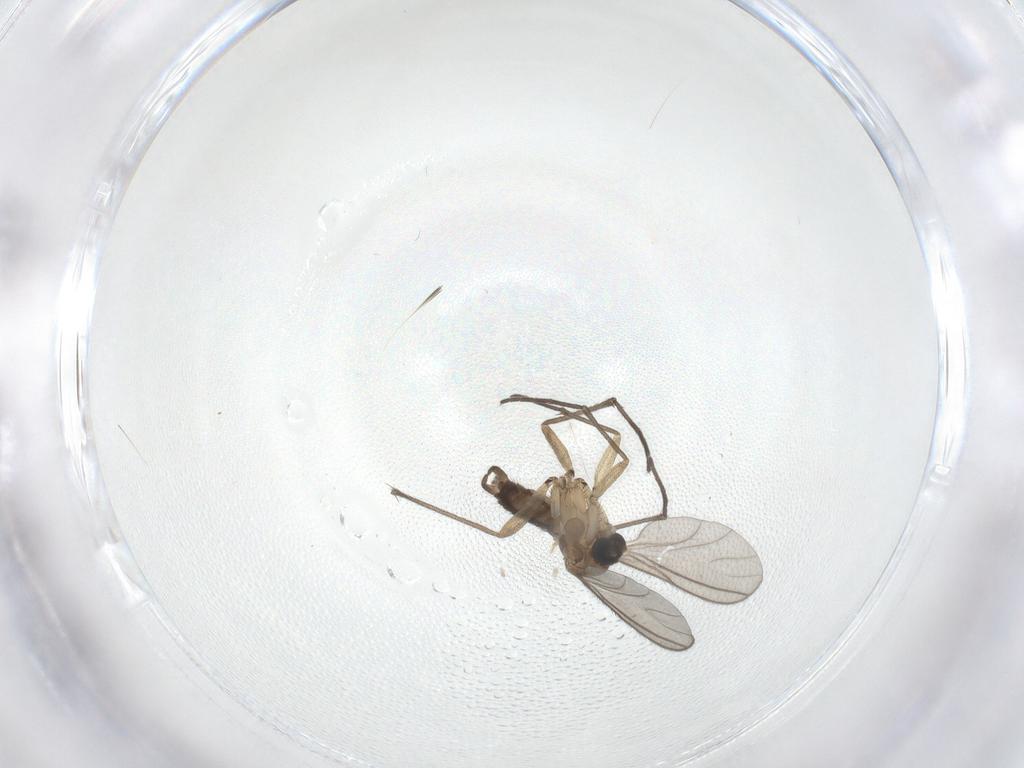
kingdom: Animalia
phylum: Arthropoda
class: Insecta
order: Diptera
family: Sciaridae
